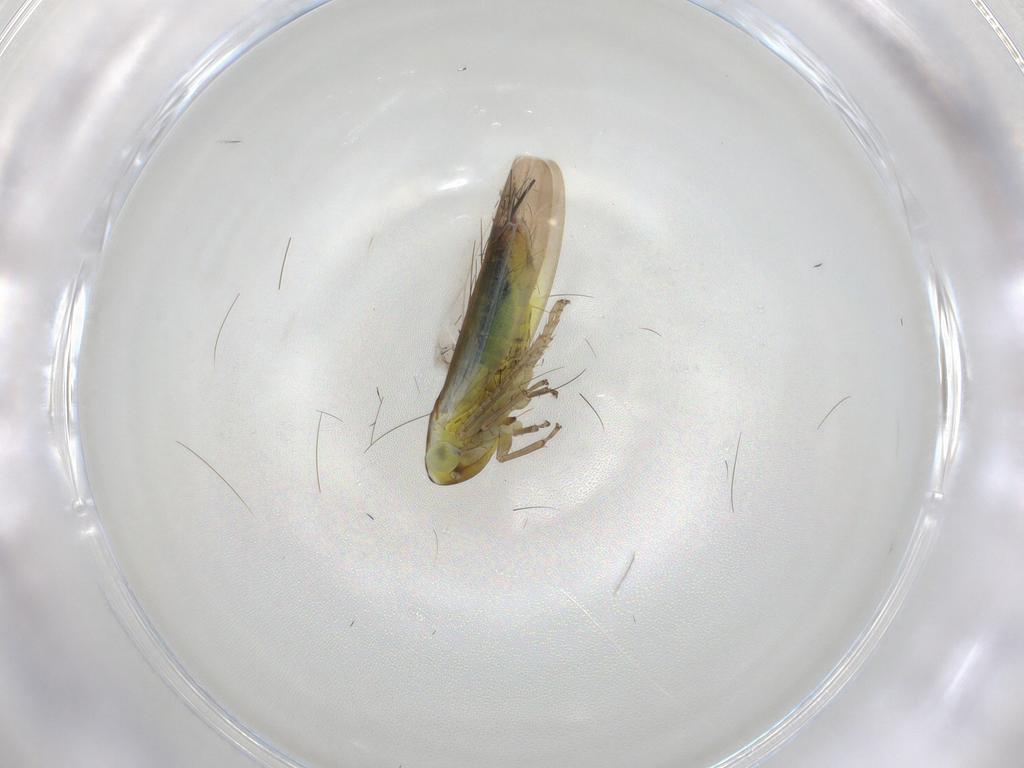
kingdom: Animalia
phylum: Arthropoda
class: Insecta
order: Hemiptera
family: Cicadellidae
